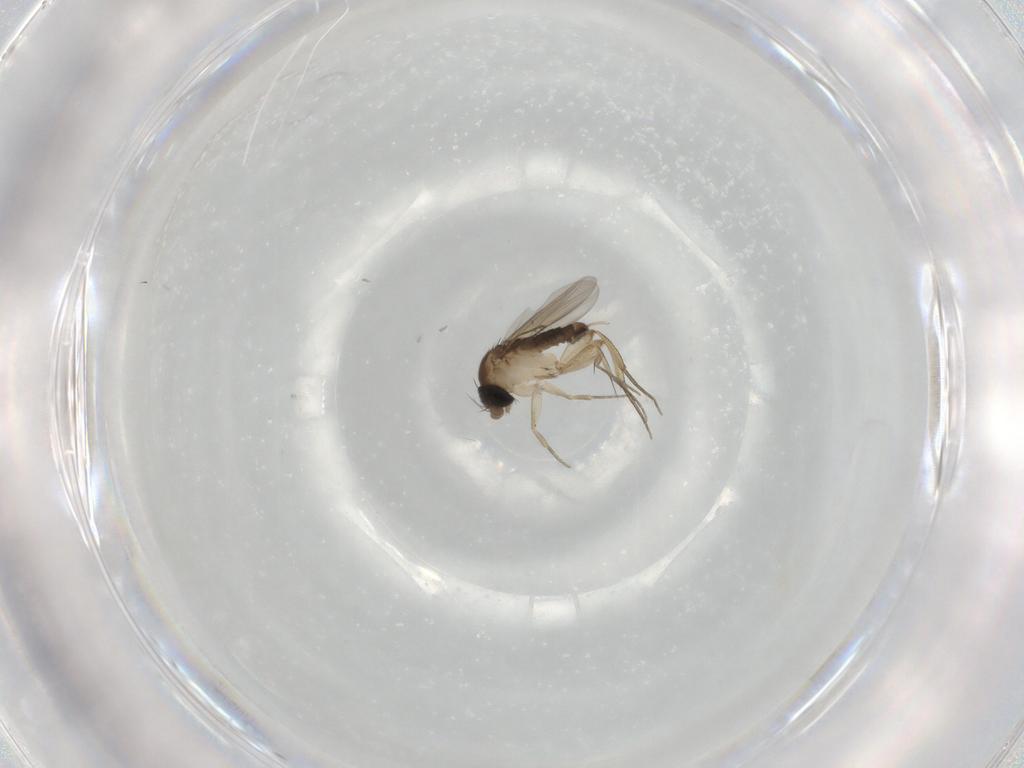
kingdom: Animalia
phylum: Arthropoda
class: Insecta
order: Diptera
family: Phoridae
